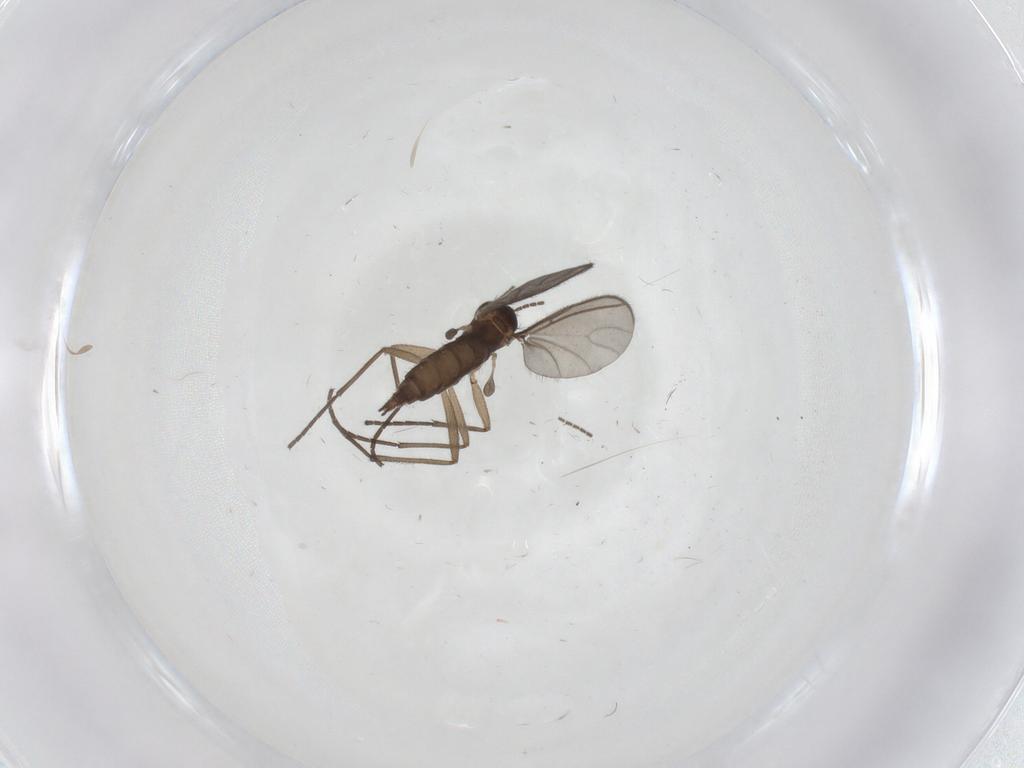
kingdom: Animalia
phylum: Arthropoda
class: Insecta
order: Diptera
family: Sciaridae
